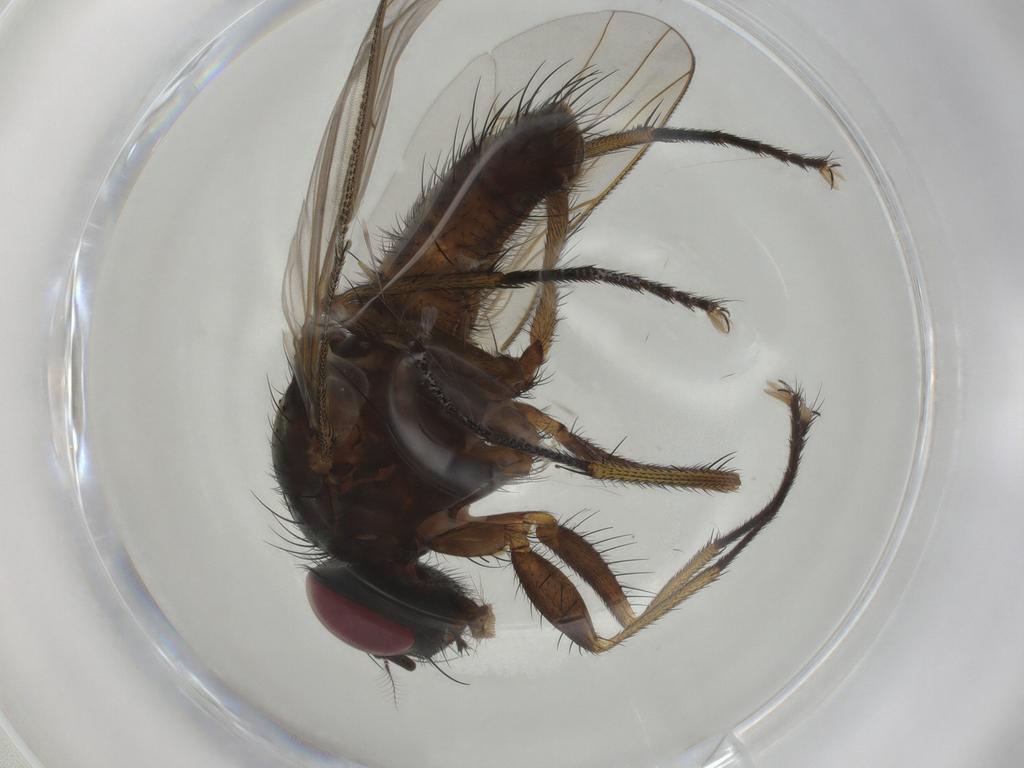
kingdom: Animalia
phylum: Arthropoda
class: Insecta
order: Diptera
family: Muscidae
